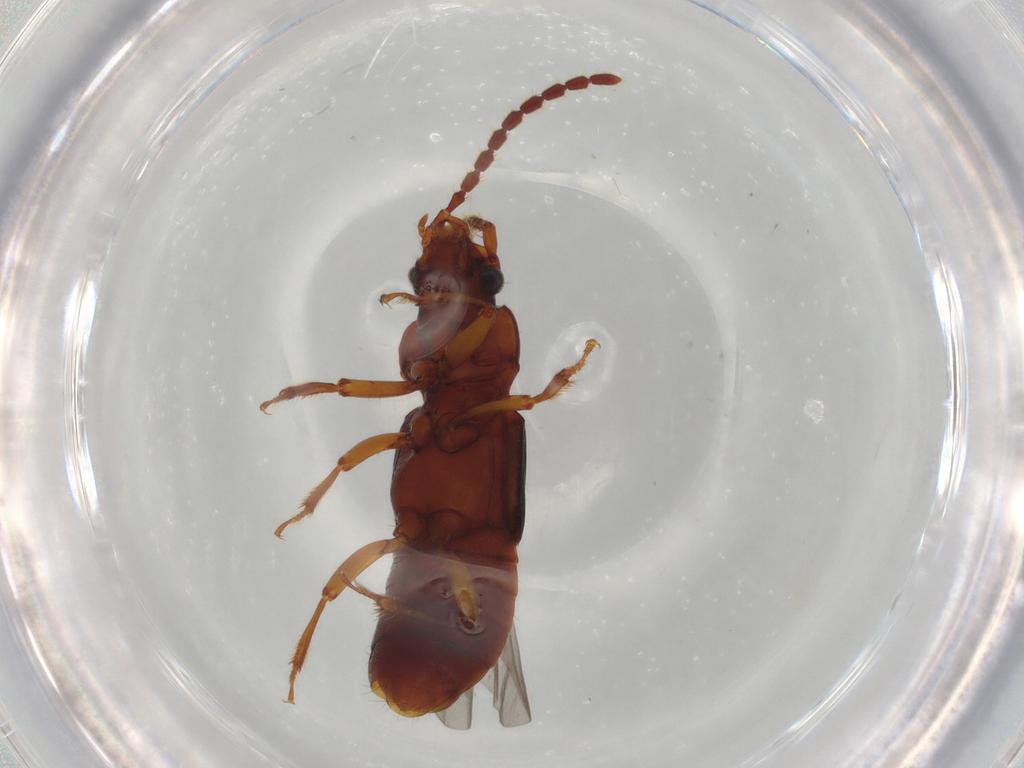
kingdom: Animalia
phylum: Arthropoda
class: Insecta
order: Coleoptera
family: Staphylinidae
